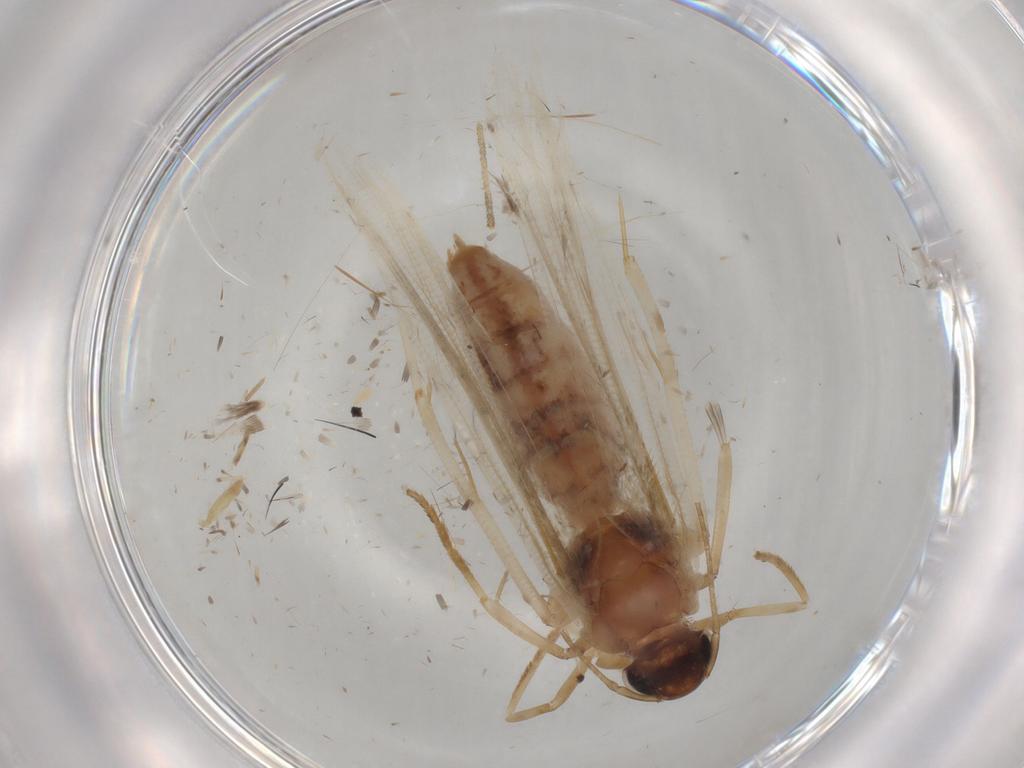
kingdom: Animalia
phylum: Arthropoda
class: Insecta
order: Lepidoptera
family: Gelechiidae
